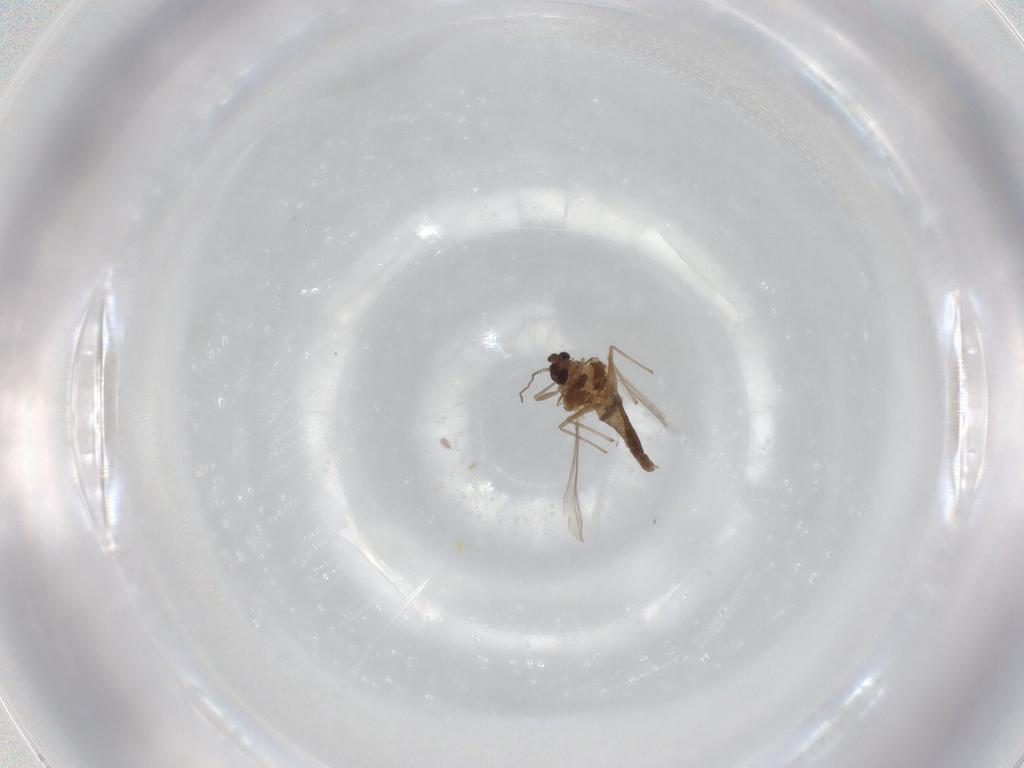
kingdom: Animalia
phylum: Arthropoda
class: Insecta
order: Diptera
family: Chironomidae
